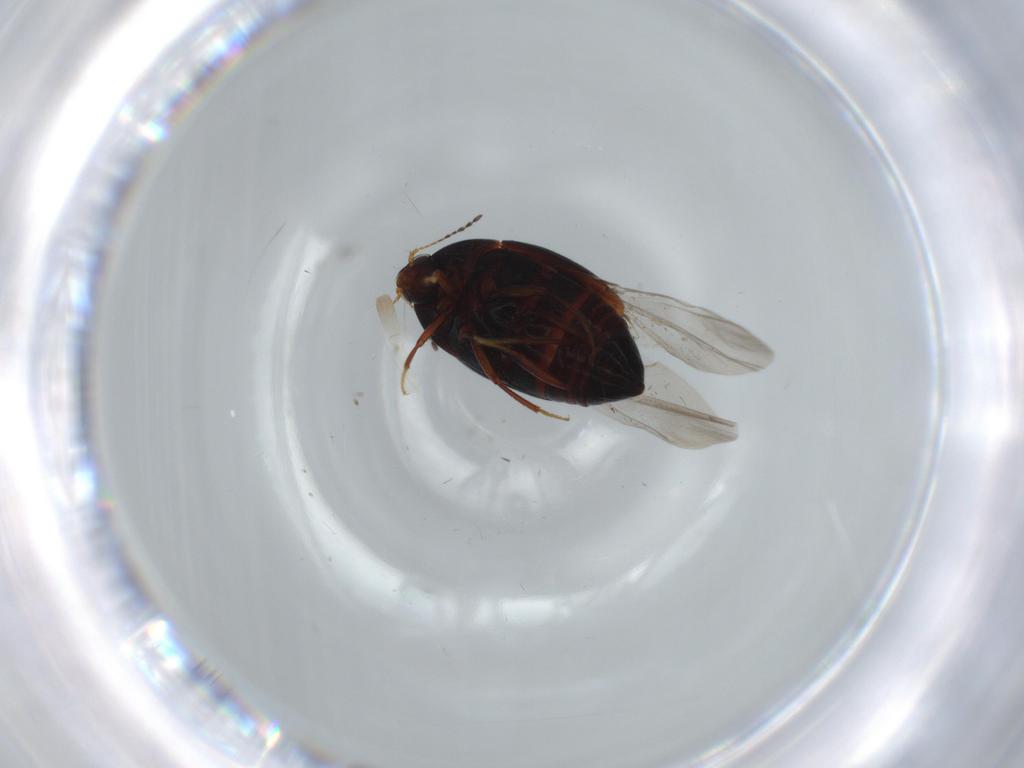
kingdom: Animalia
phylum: Arthropoda
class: Insecta
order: Coleoptera
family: Staphylinidae
